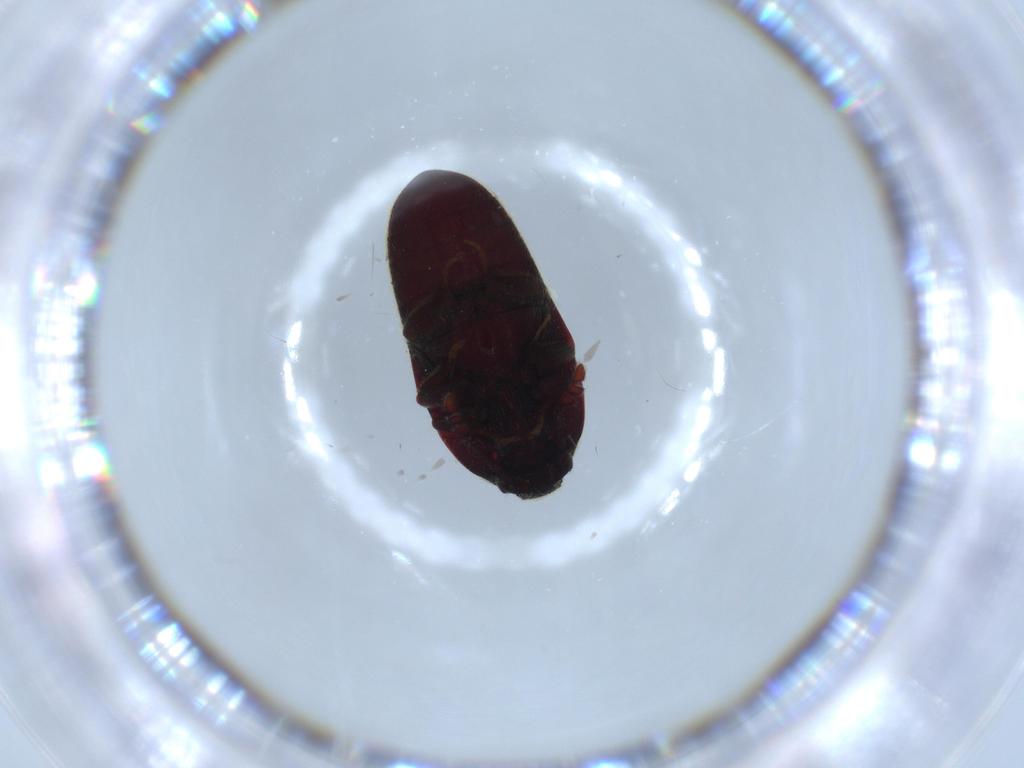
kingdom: Animalia
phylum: Arthropoda
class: Insecta
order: Coleoptera
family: Throscidae
